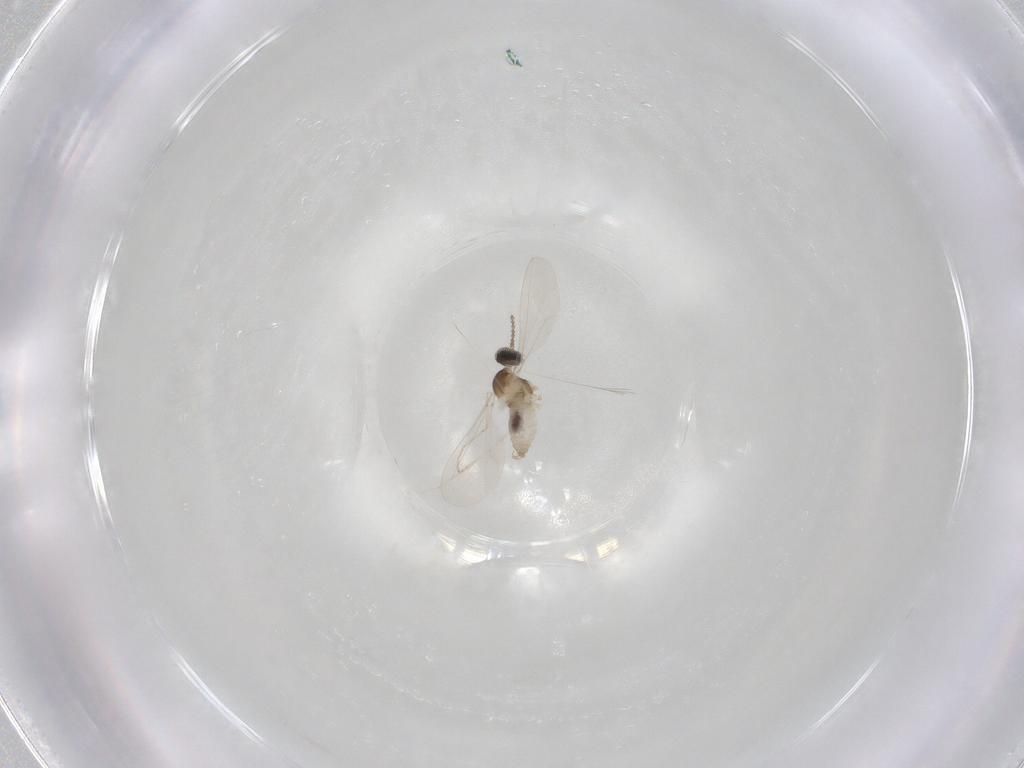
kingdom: Animalia
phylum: Arthropoda
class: Insecta
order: Diptera
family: Cecidomyiidae
